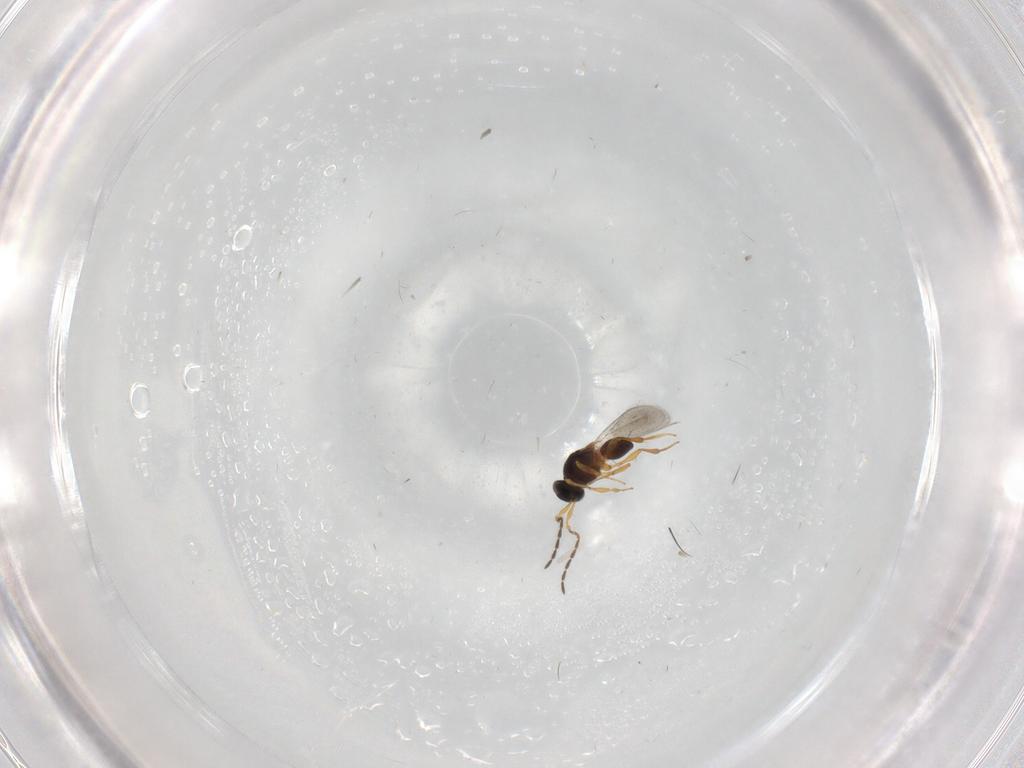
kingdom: Animalia
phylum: Arthropoda
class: Insecta
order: Hymenoptera
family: Platygastridae
